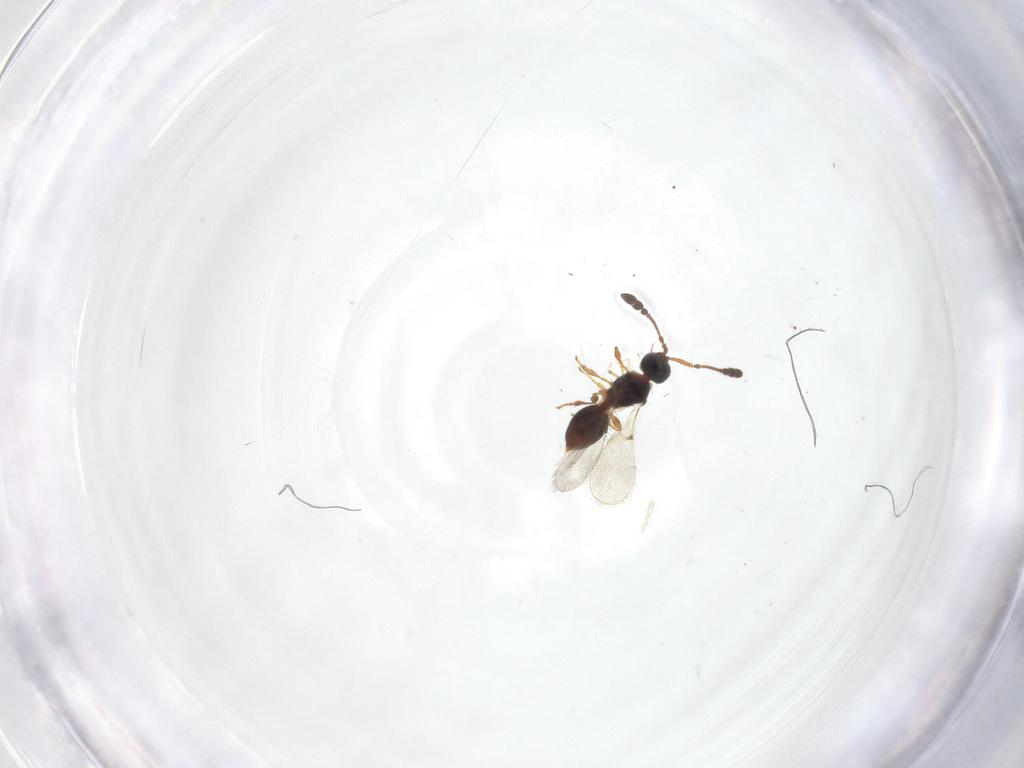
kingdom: Animalia
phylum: Arthropoda
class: Insecta
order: Hymenoptera
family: Diapriidae
